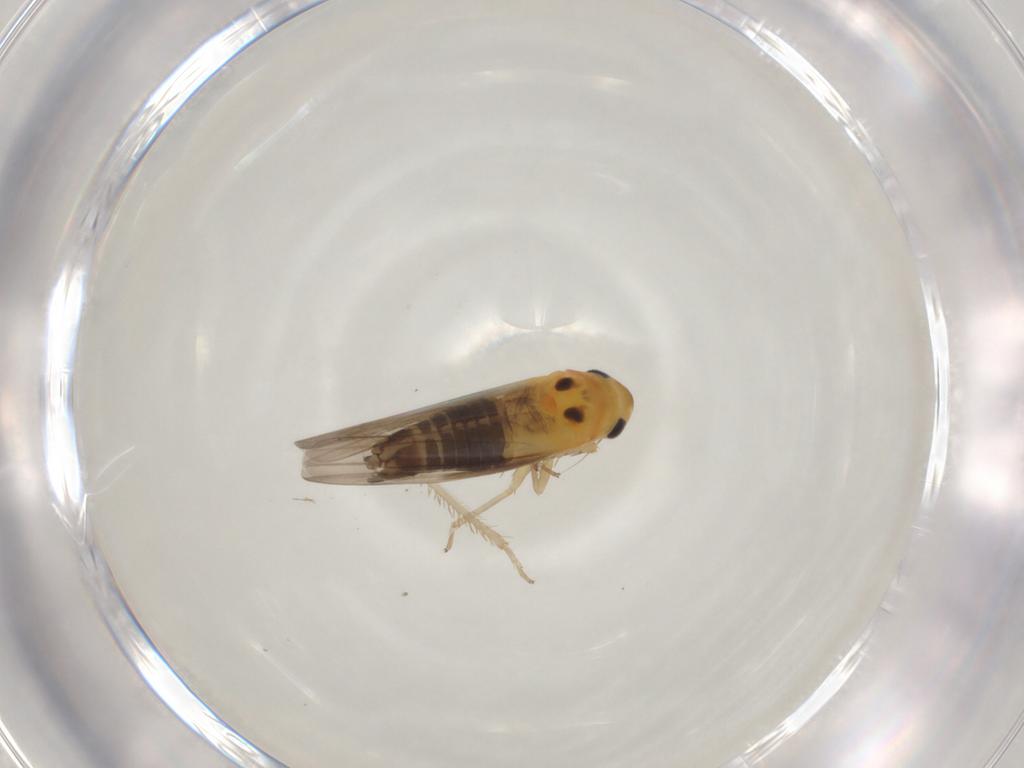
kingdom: Animalia
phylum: Arthropoda
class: Insecta
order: Hemiptera
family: Cicadellidae
